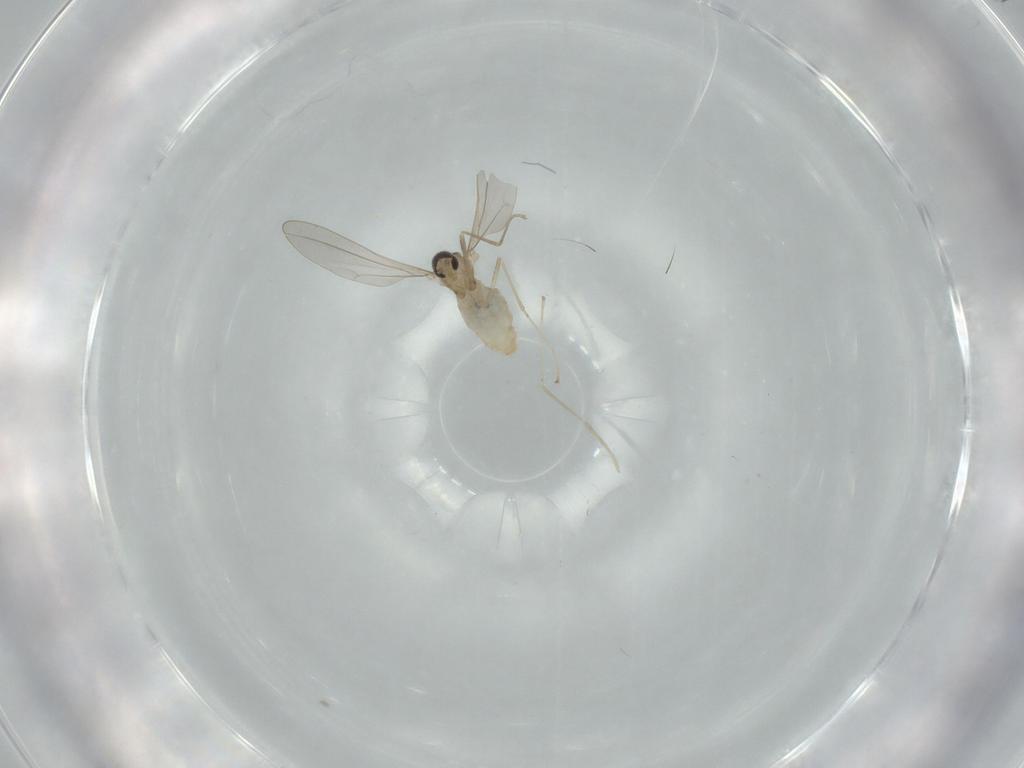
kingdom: Animalia
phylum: Arthropoda
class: Insecta
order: Diptera
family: Cecidomyiidae
